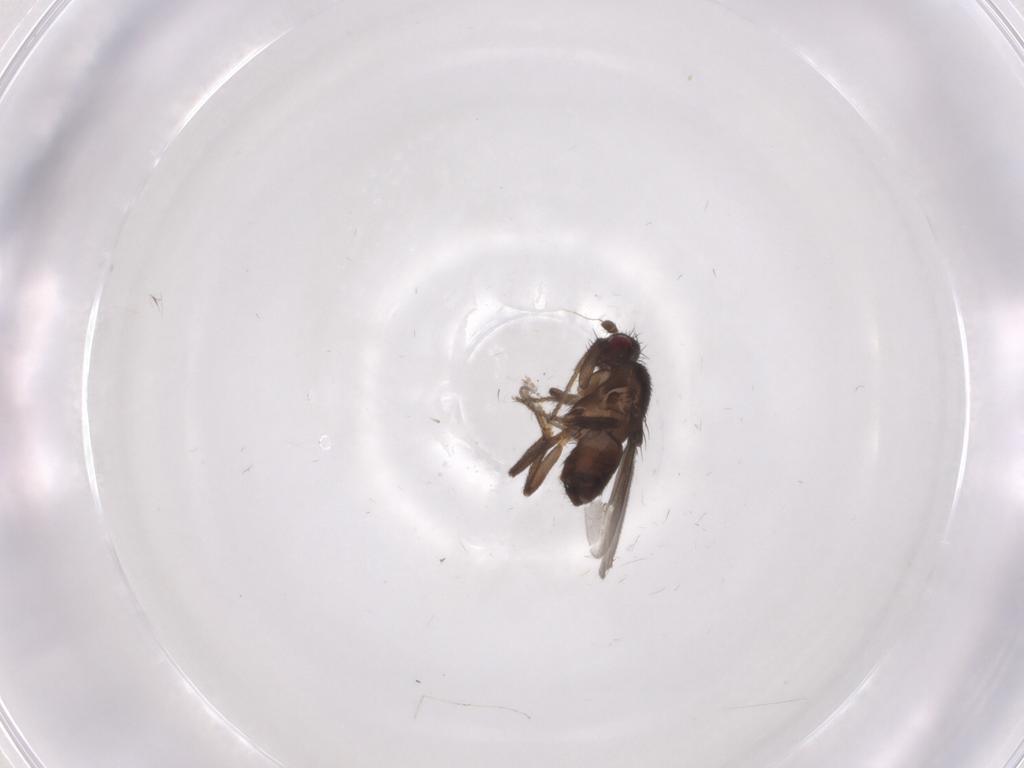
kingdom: Animalia
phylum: Arthropoda
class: Insecta
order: Diptera
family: Cecidomyiidae
